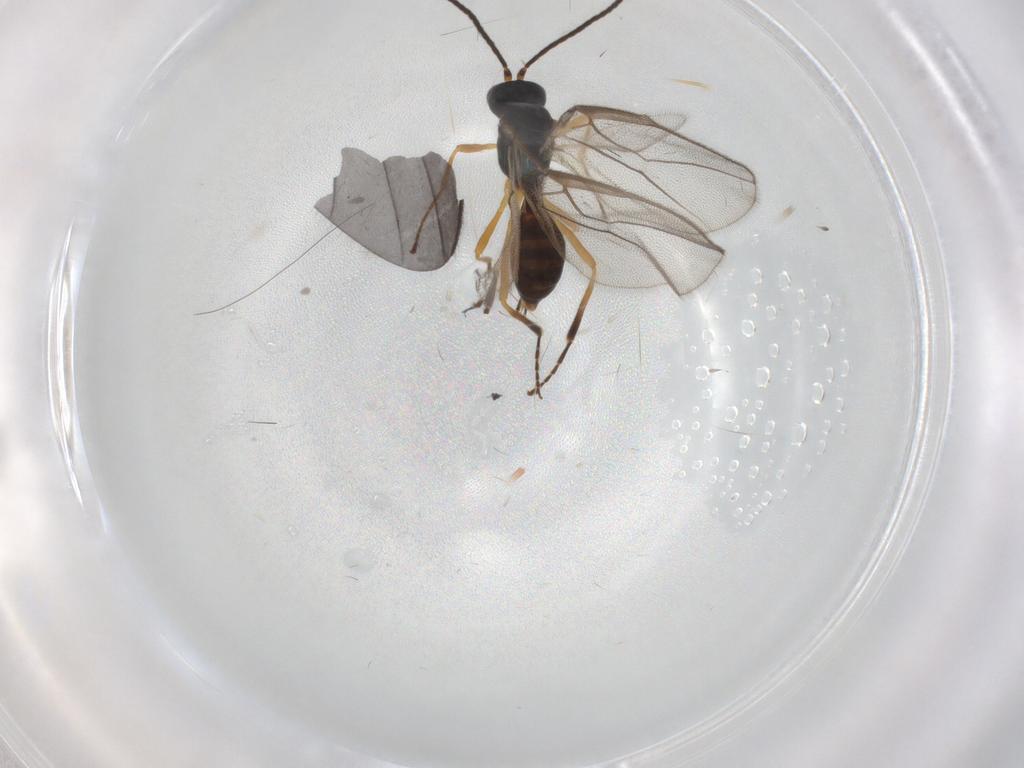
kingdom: Animalia
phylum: Arthropoda
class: Insecta
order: Hymenoptera
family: Braconidae
